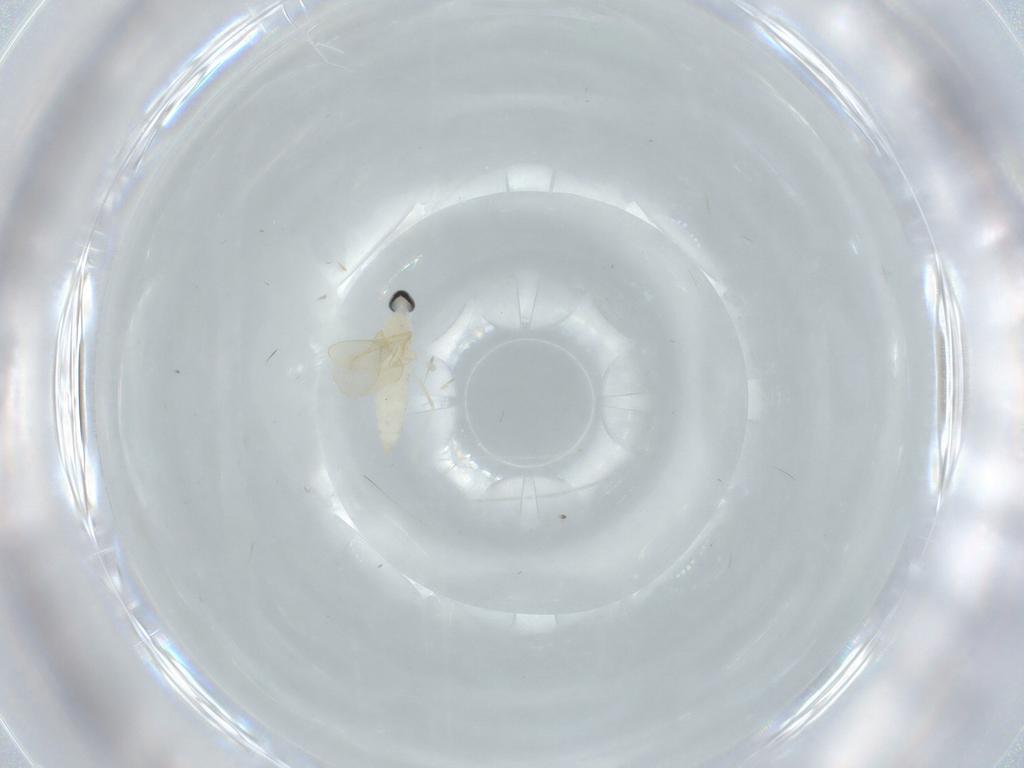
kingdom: Animalia
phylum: Arthropoda
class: Insecta
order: Diptera
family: Cecidomyiidae
